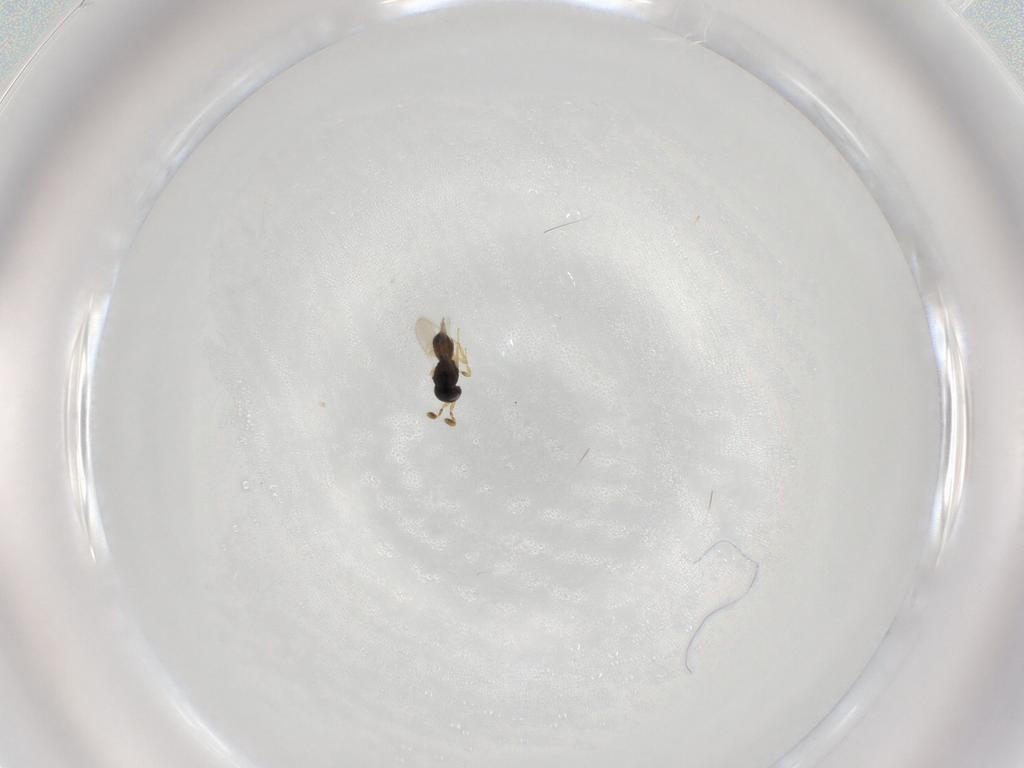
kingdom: Animalia
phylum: Arthropoda
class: Insecta
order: Hymenoptera
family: Scelionidae
